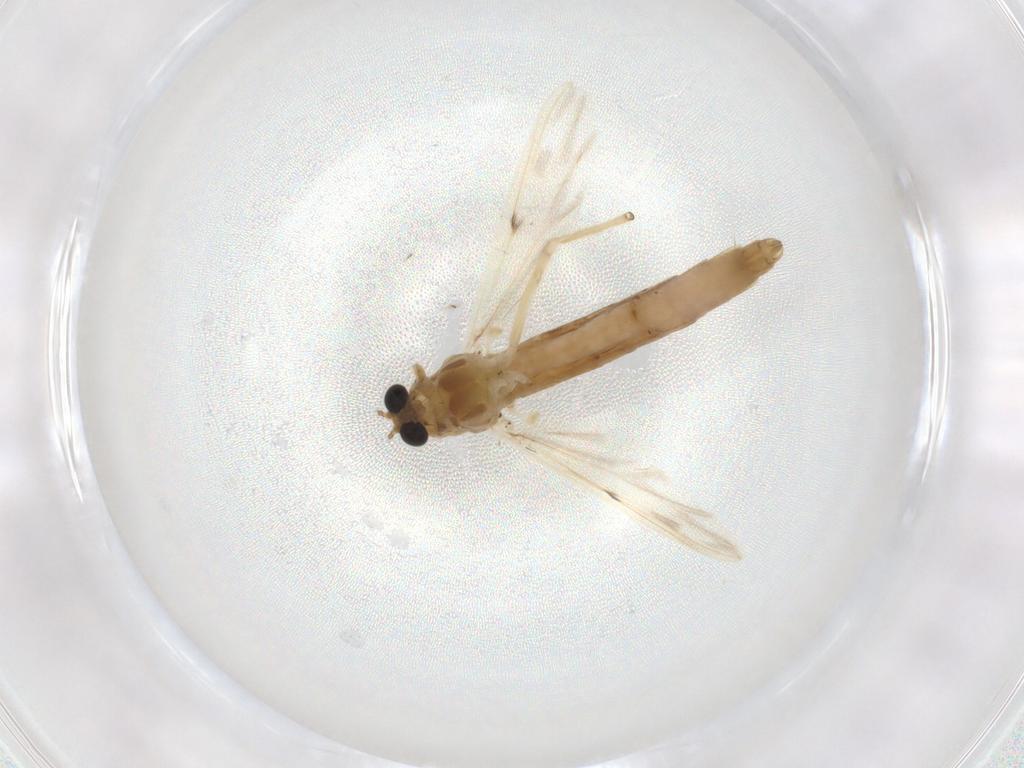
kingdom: Animalia
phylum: Arthropoda
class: Insecta
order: Diptera
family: Chironomidae
